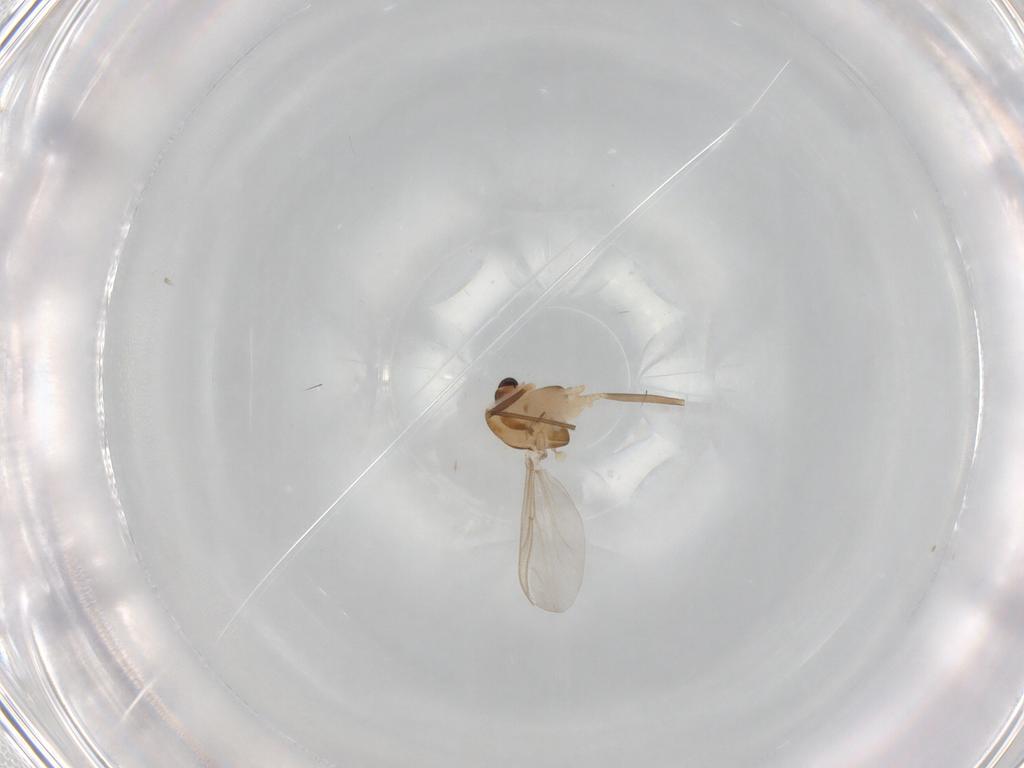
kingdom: Animalia
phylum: Arthropoda
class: Insecta
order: Diptera
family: Chironomidae
